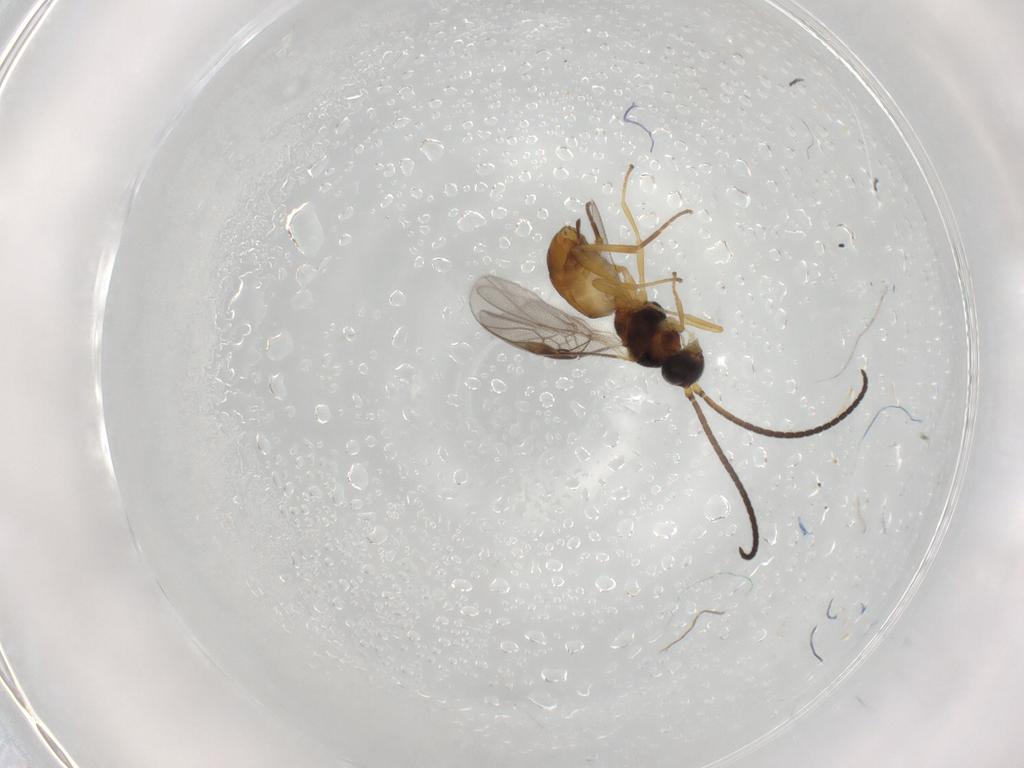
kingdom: Animalia
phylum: Arthropoda
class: Insecta
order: Hymenoptera
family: Braconidae
